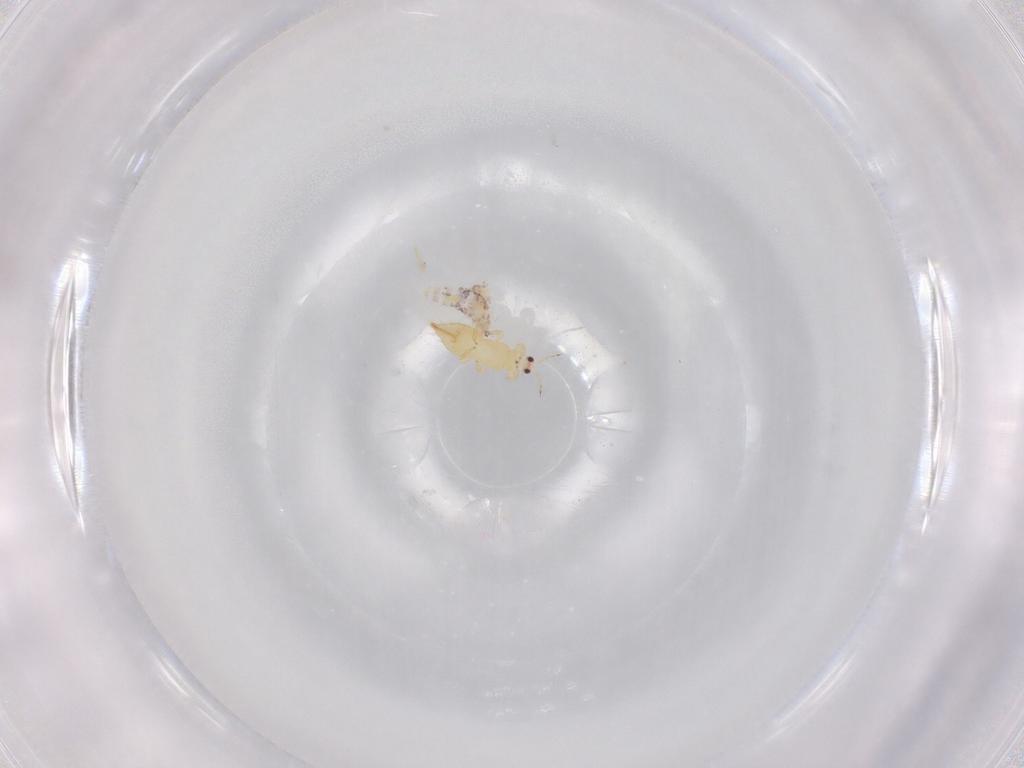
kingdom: Animalia
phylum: Arthropoda
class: Insecta
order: Thysanoptera
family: Thripidae
